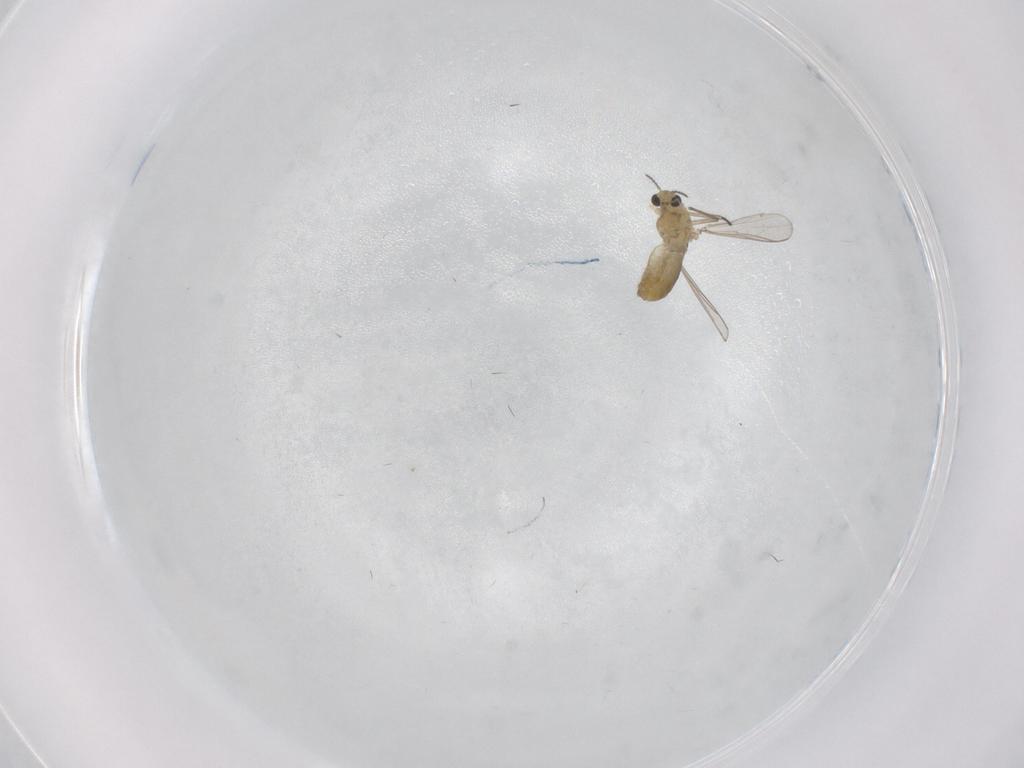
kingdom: Animalia
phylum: Arthropoda
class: Insecta
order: Diptera
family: Chironomidae
